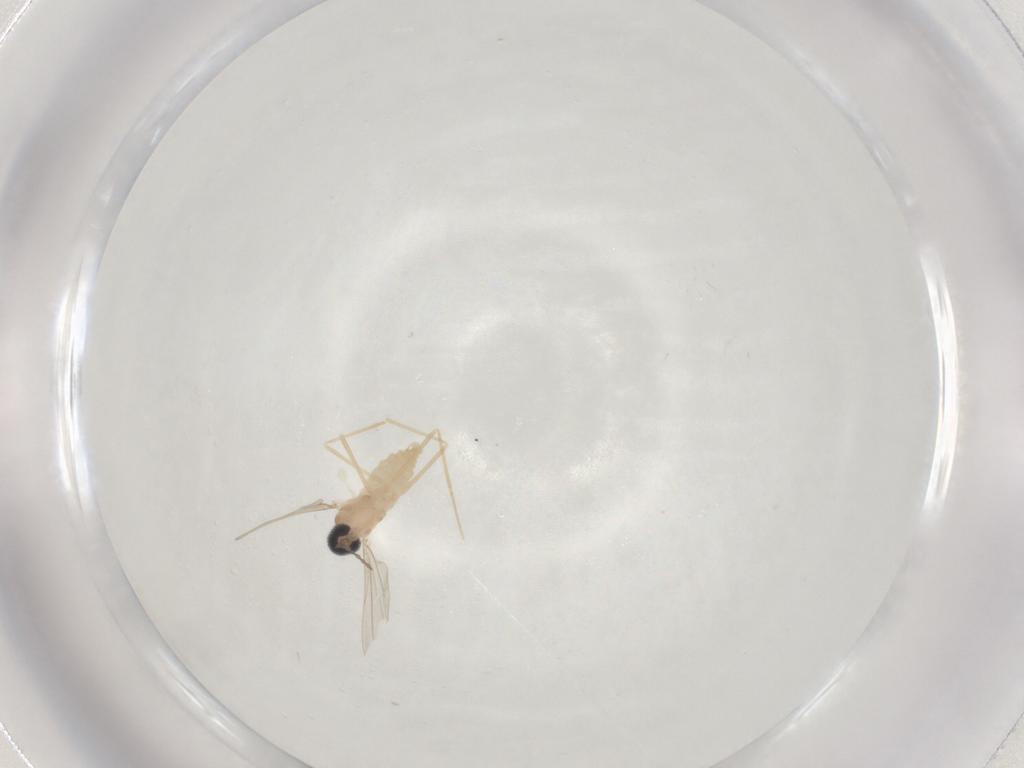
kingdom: Animalia
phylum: Arthropoda
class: Insecta
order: Diptera
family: Cecidomyiidae
